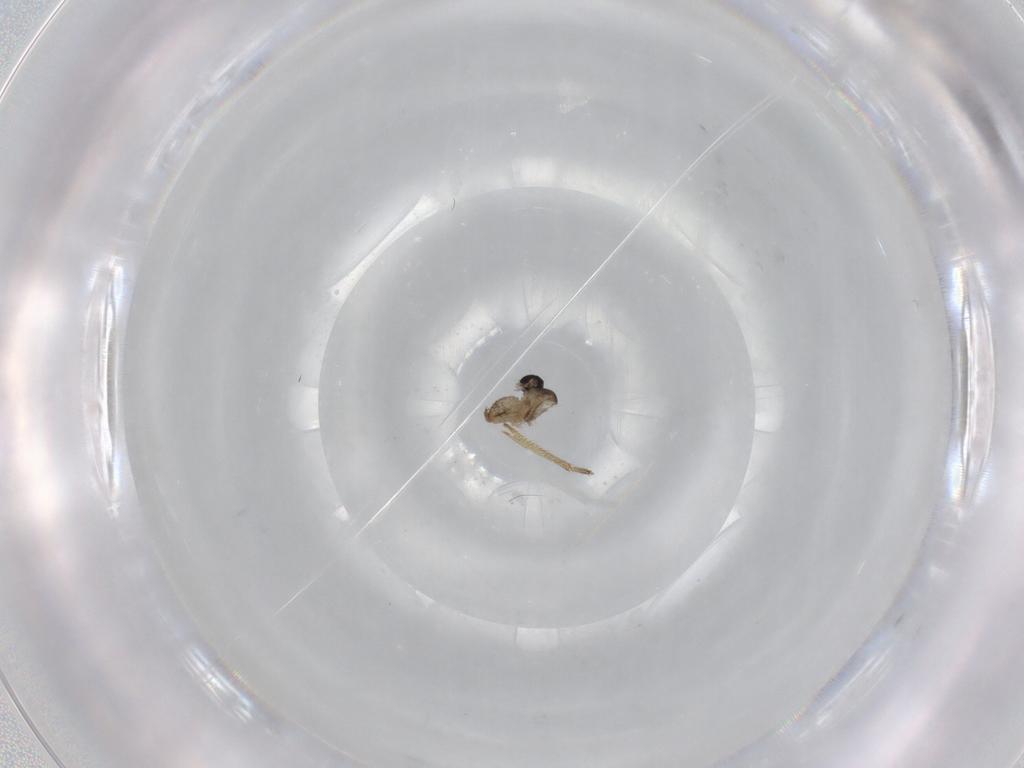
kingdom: Animalia
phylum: Arthropoda
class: Insecta
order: Diptera
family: Cecidomyiidae
